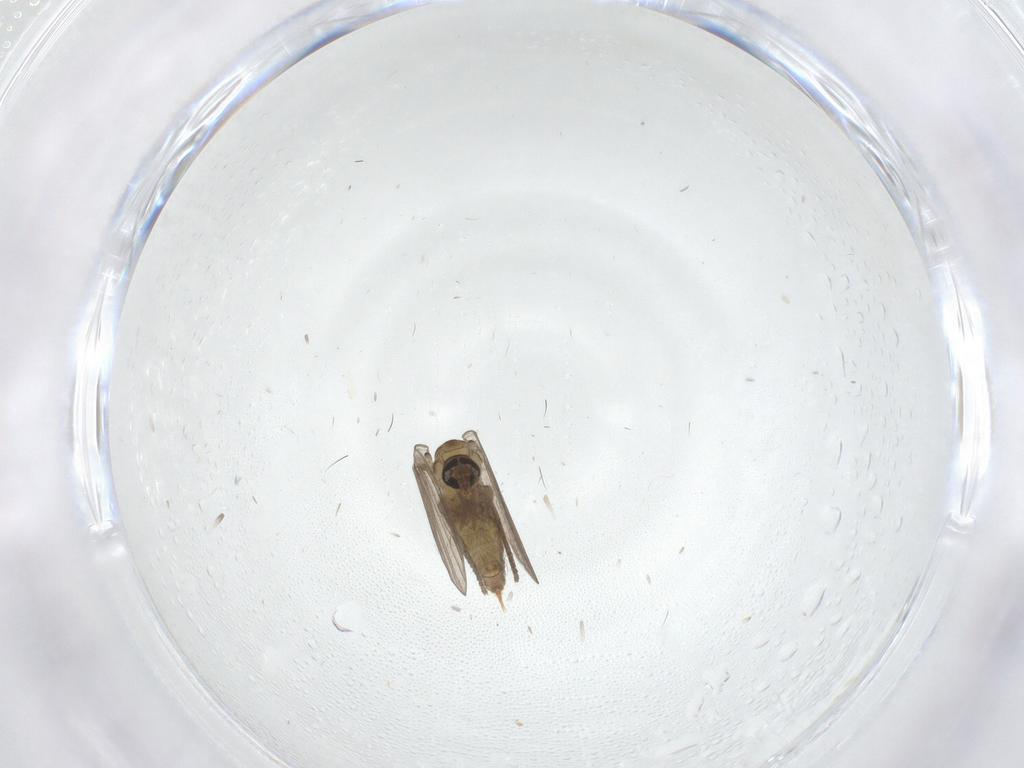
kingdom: Animalia
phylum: Arthropoda
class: Insecta
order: Diptera
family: Psychodidae
